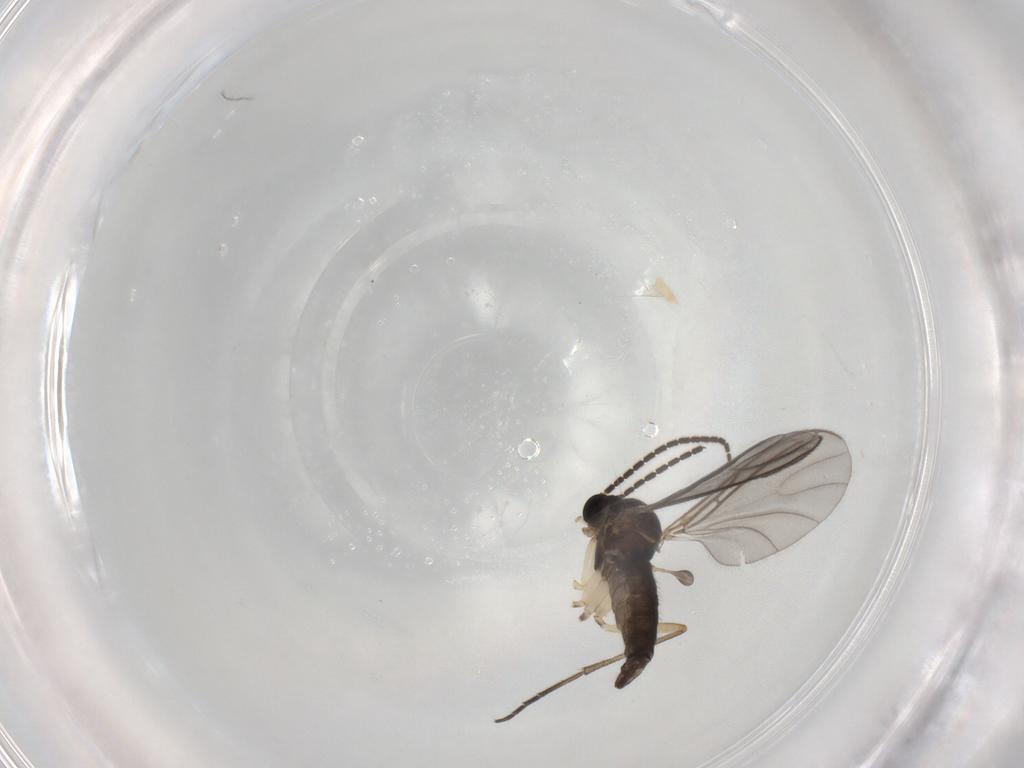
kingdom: Animalia
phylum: Arthropoda
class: Insecta
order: Diptera
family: Sciaridae
